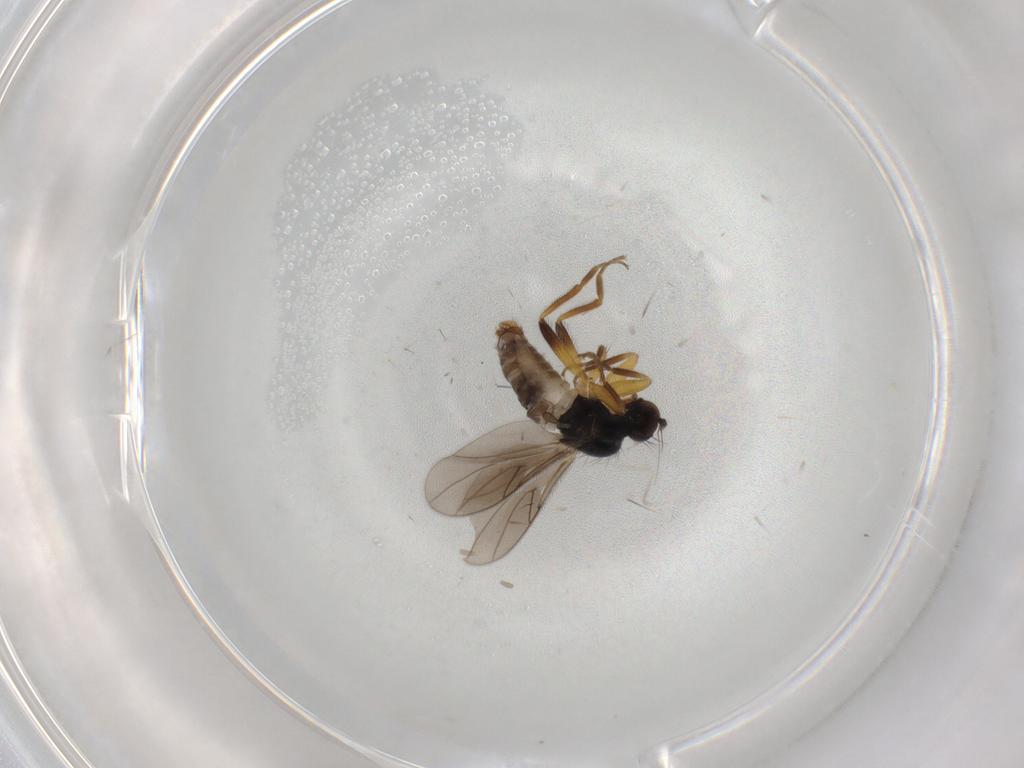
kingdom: Animalia
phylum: Arthropoda
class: Insecta
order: Diptera
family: Hybotidae
